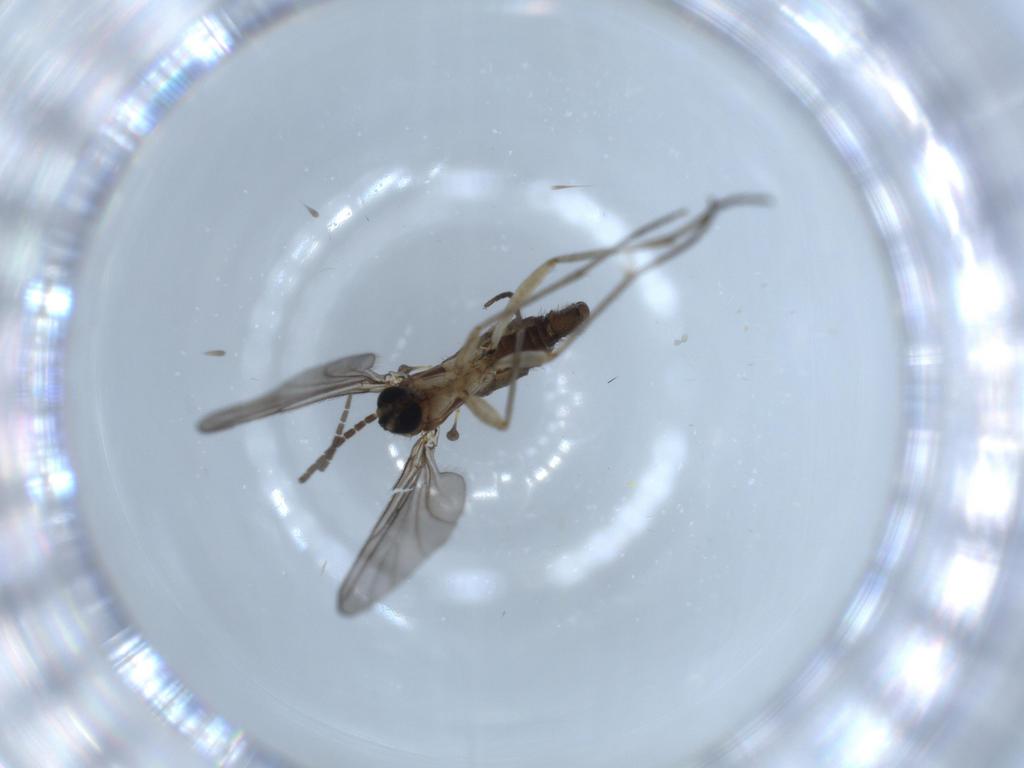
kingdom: Animalia
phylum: Arthropoda
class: Insecta
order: Diptera
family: Sciaridae
